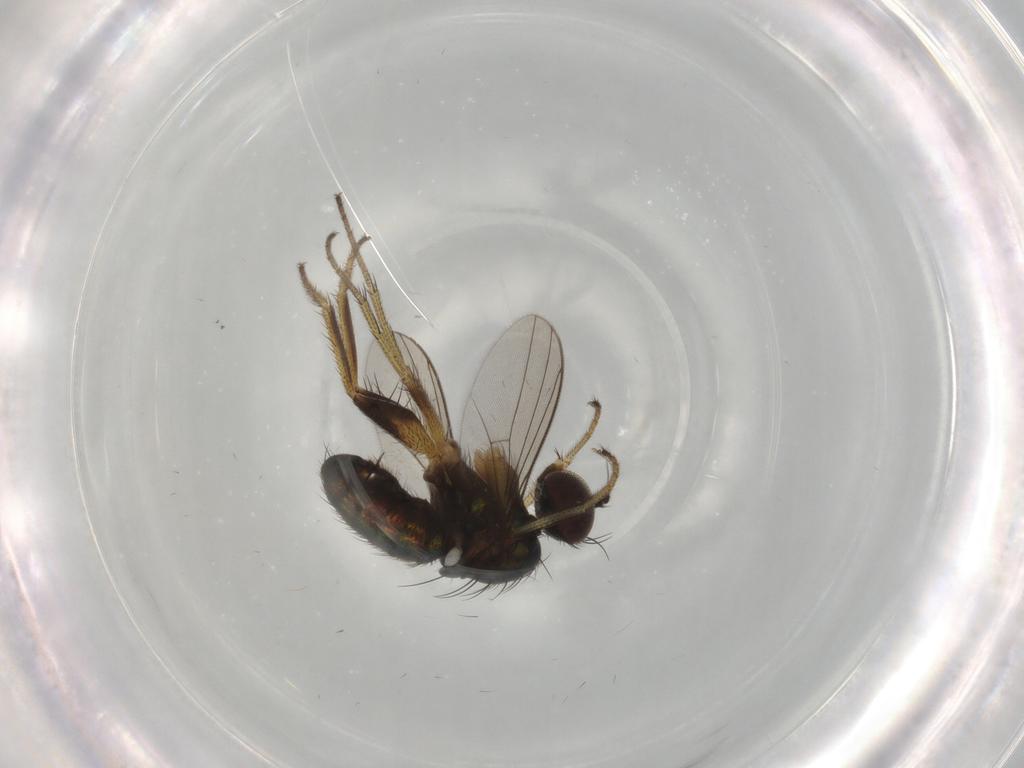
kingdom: Animalia
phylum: Arthropoda
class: Insecta
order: Diptera
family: Dolichopodidae
